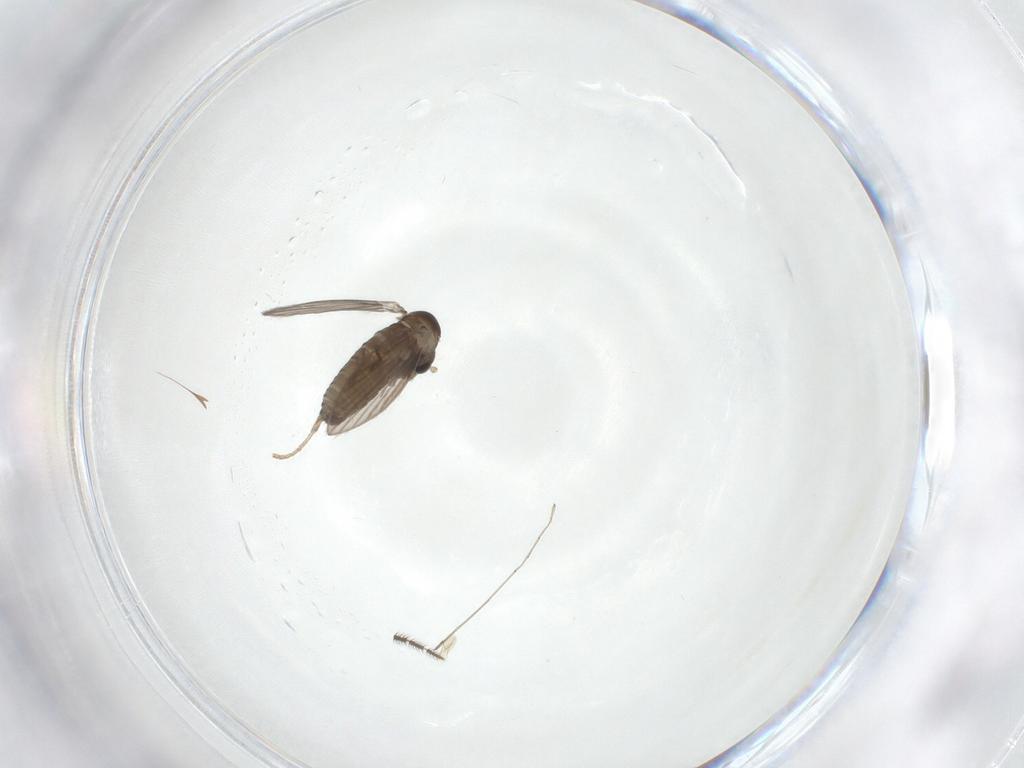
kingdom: Animalia
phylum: Arthropoda
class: Insecta
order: Diptera
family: Psychodidae
